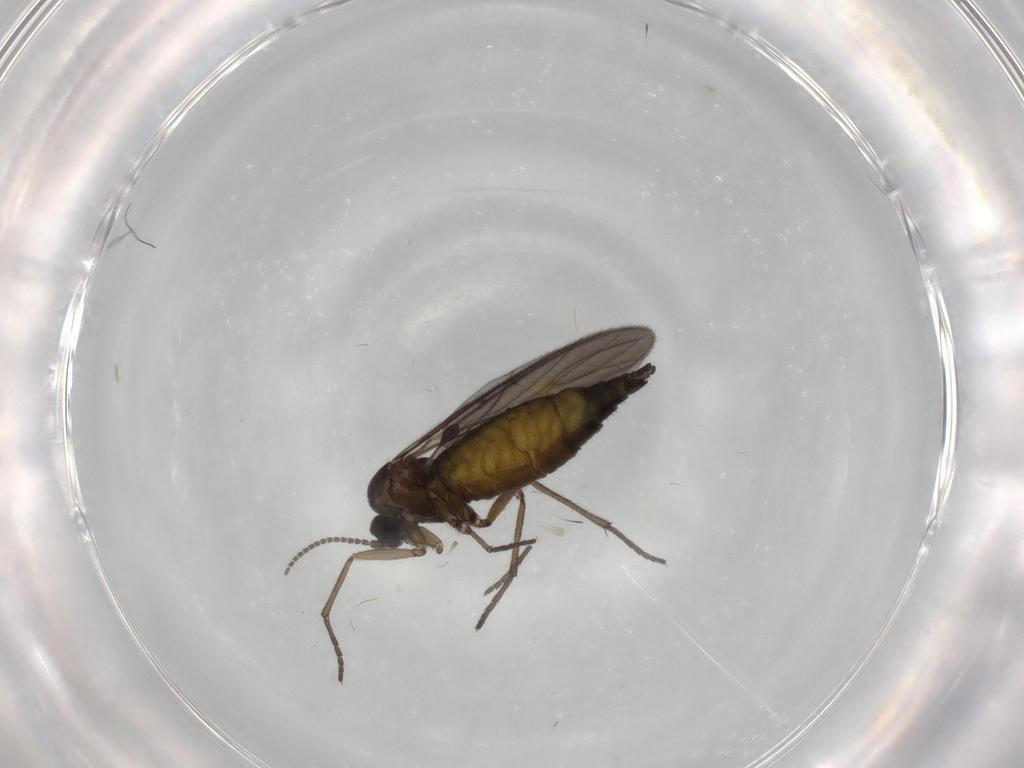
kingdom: Animalia
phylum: Arthropoda
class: Insecta
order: Diptera
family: Sciaridae
